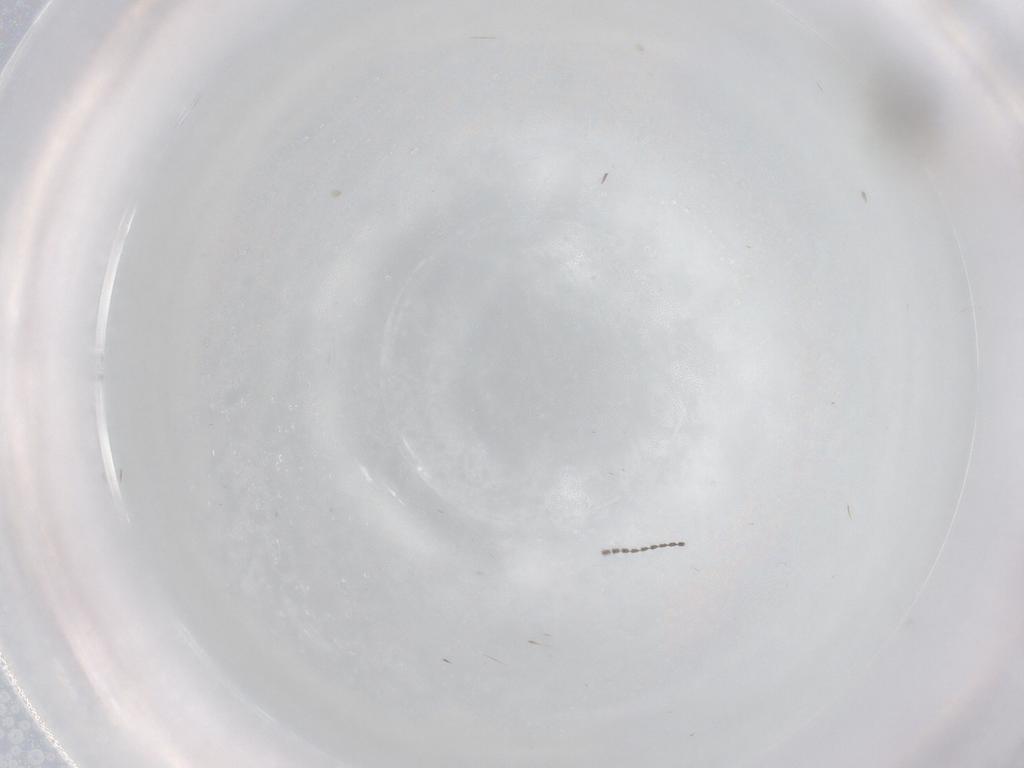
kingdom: Animalia
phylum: Arthropoda
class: Insecta
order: Diptera
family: Cecidomyiidae
